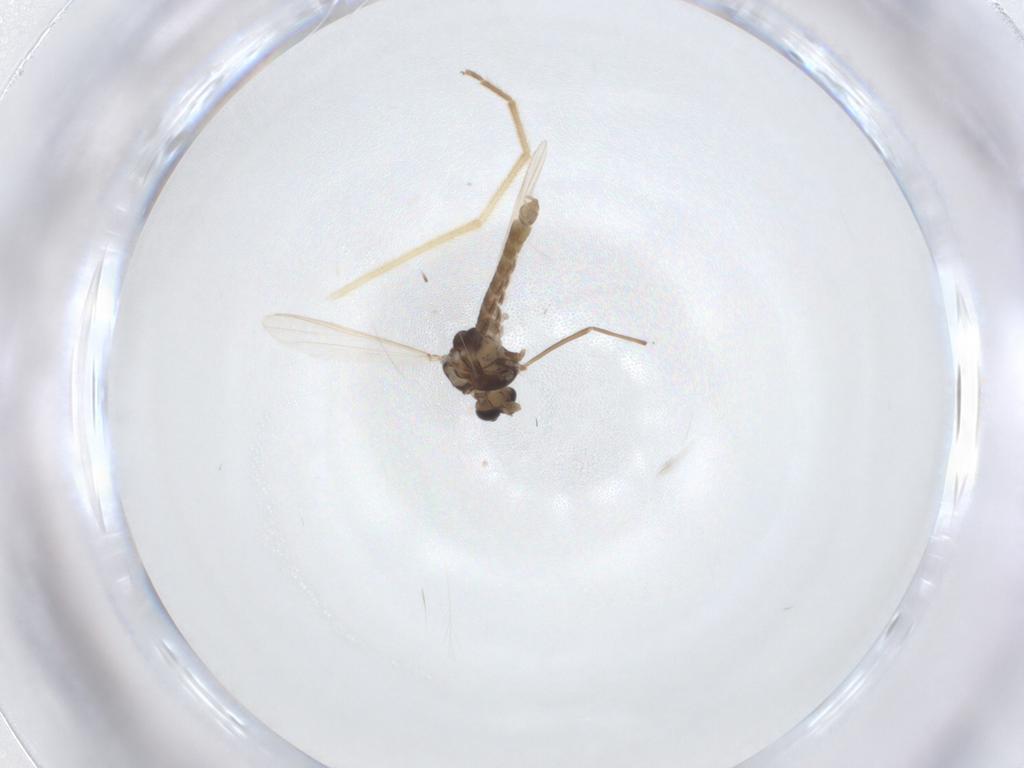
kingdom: Animalia
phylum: Arthropoda
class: Insecta
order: Diptera
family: Chironomidae
